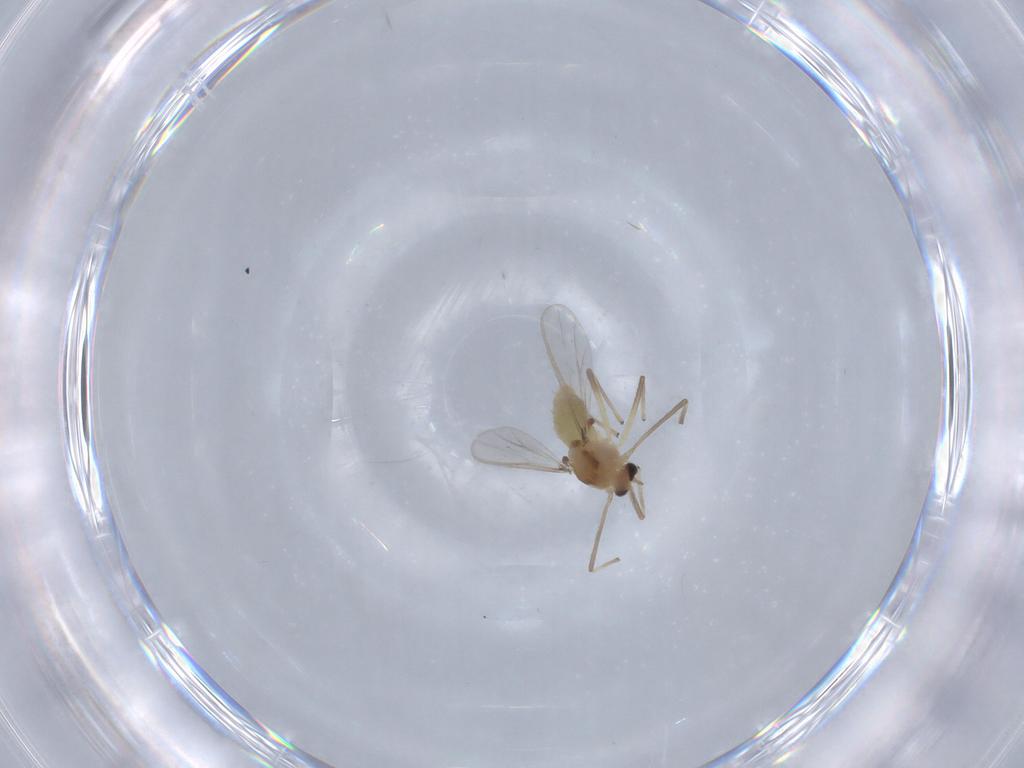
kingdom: Animalia
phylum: Arthropoda
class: Insecta
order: Diptera
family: Chironomidae
